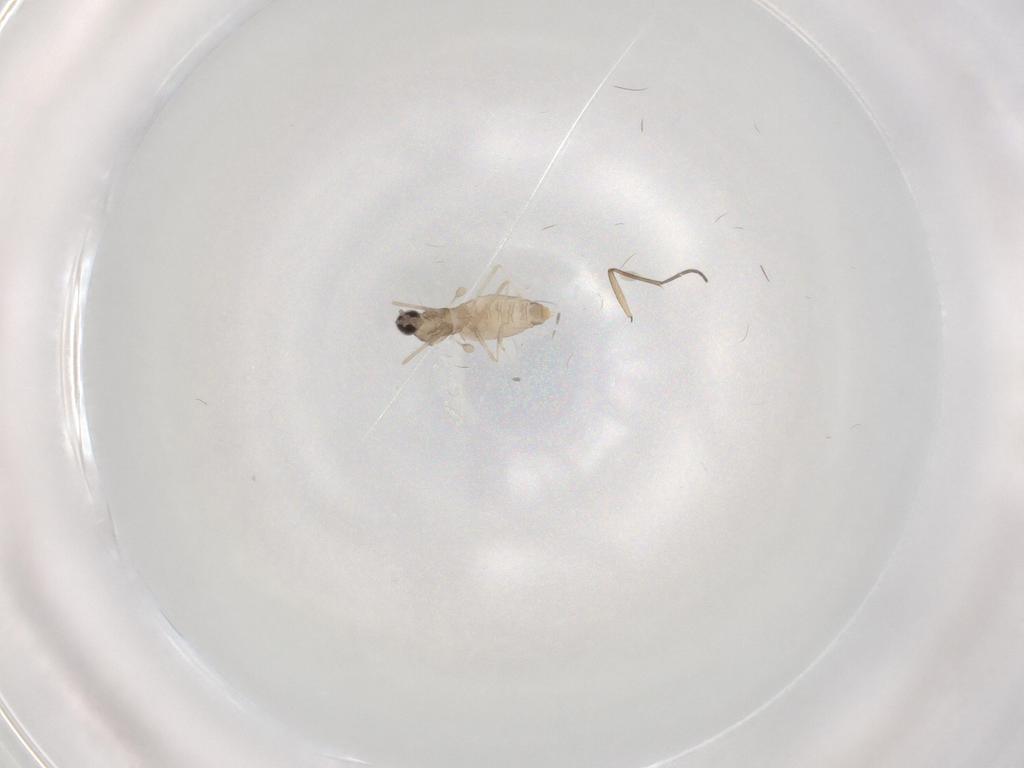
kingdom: Animalia
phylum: Arthropoda
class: Insecta
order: Diptera
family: Cecidomyiidae
